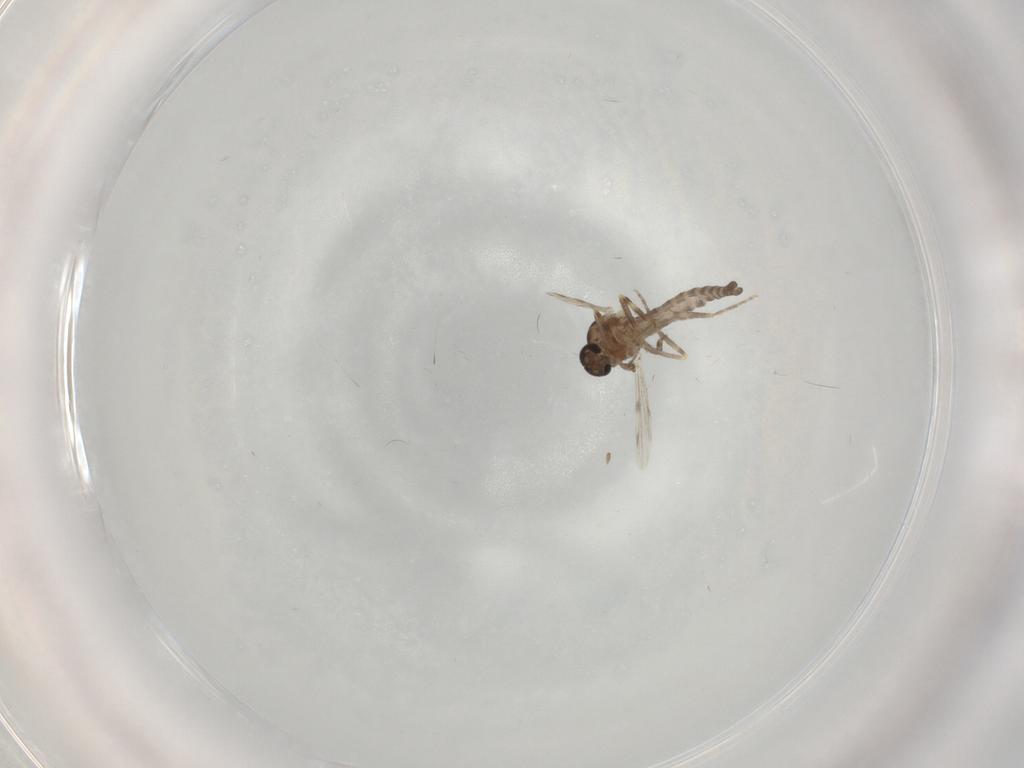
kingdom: Animalia
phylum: Arthropoda
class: Insecta
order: Diptera
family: Ceratopogonidae
